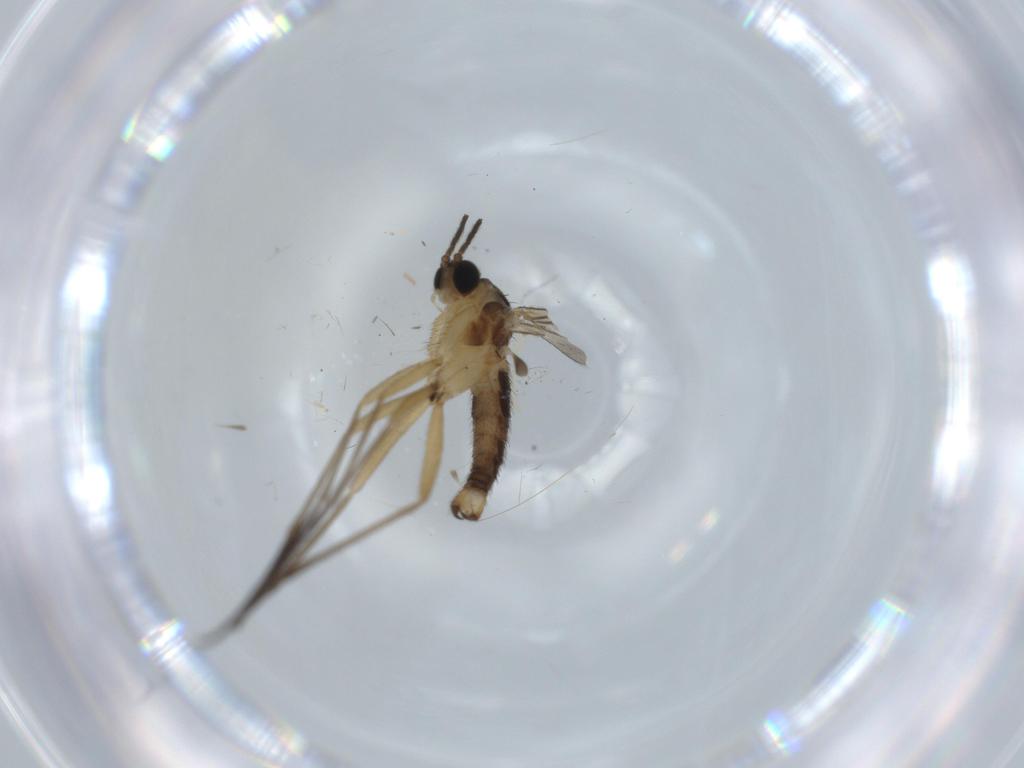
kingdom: Animalia
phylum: Arthropoda
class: Insecta
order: Diptera
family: Sciaridae
